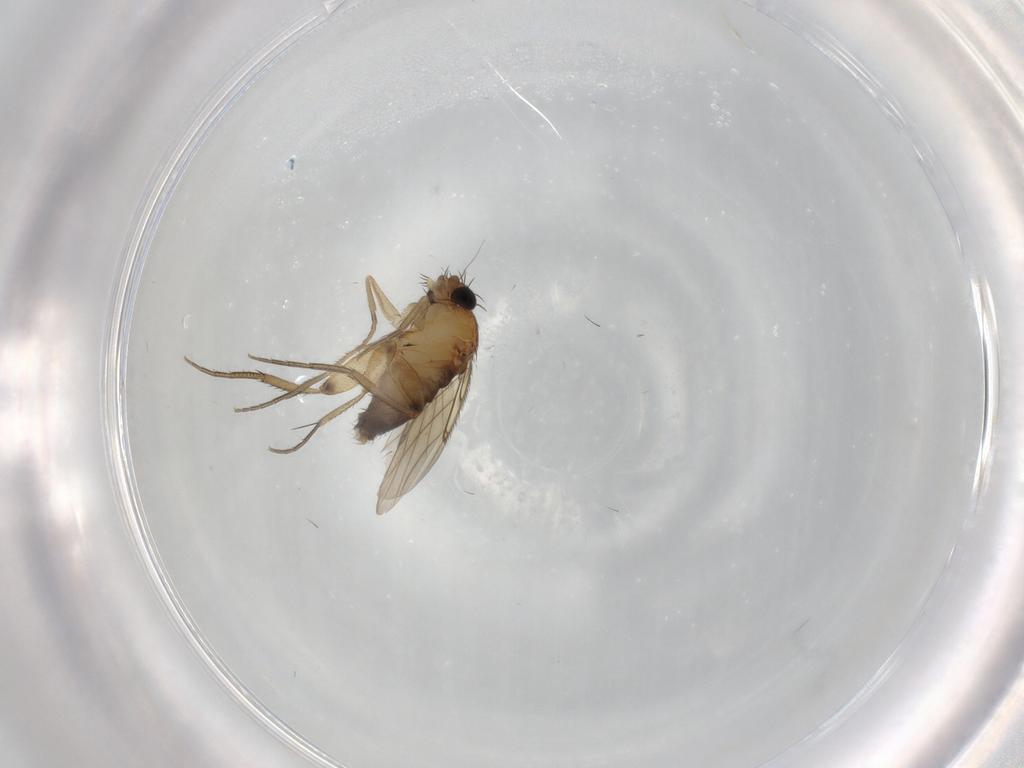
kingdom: Animalia
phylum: Arthropoda
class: Insecta
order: Diptera
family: Phoridae
